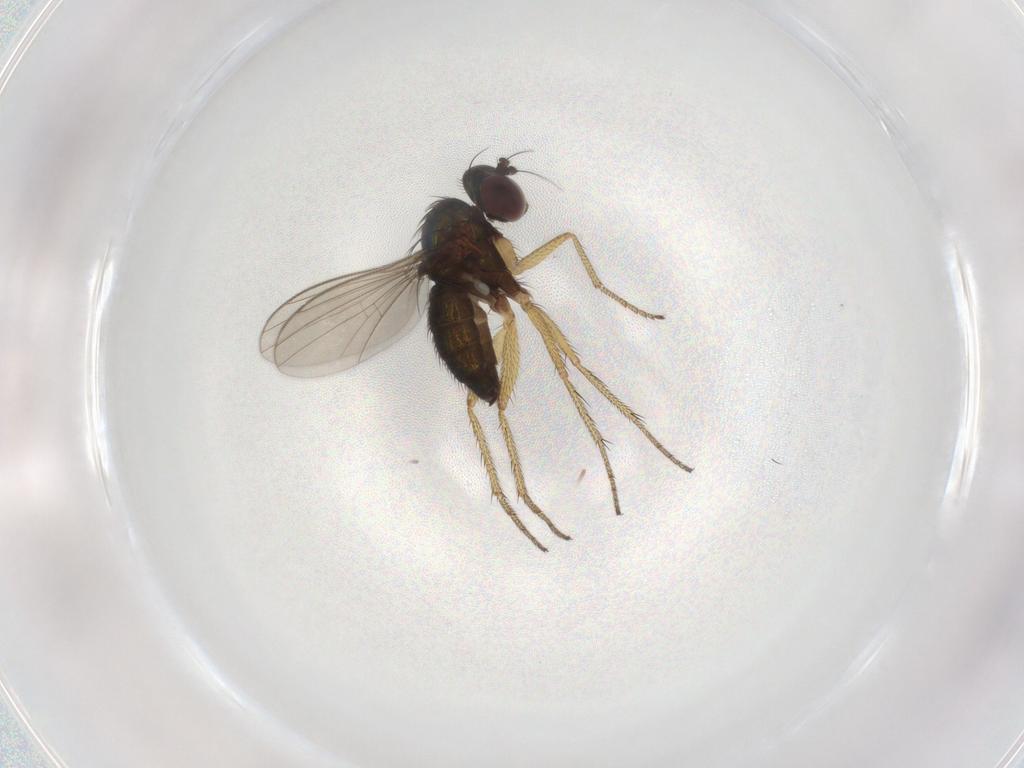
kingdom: Animalia
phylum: Arthropoda
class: Insecta
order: Diptera
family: Dolichopodidae
